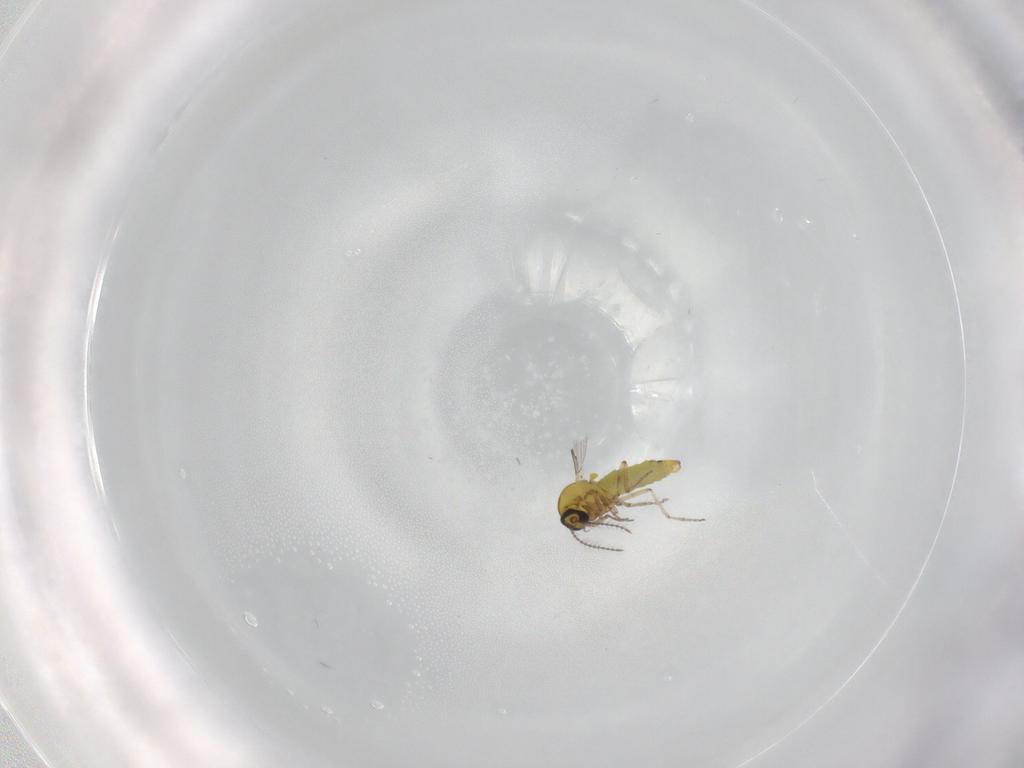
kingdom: Animalia
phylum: Arthropoda
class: Insecta
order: Diptera
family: Ceratopogonidae
